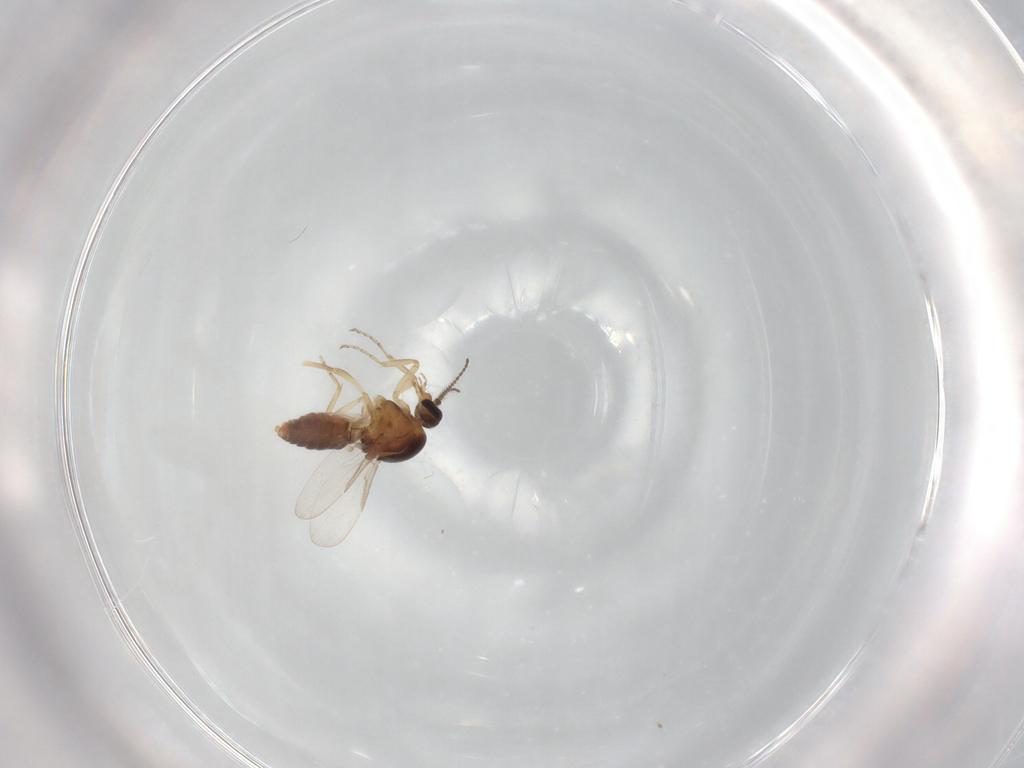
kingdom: Animalia
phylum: Arthropoda
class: Insecta
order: Diptera
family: Ceratopogonidae
